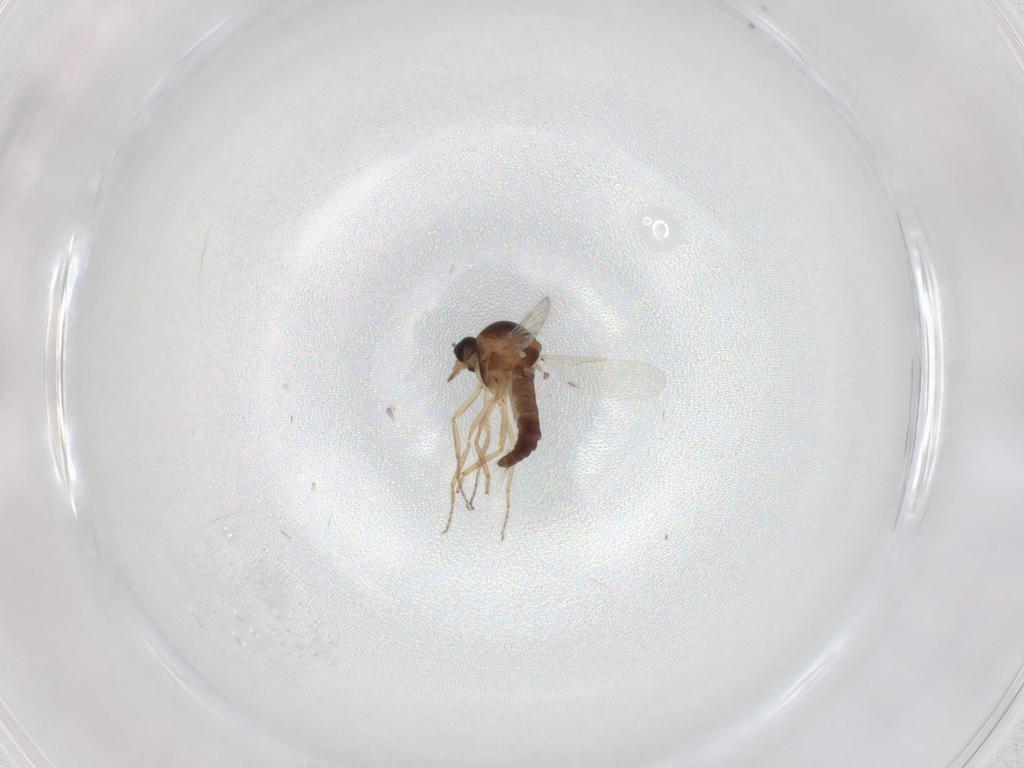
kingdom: Animalia
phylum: Arthropoda
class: Insecta
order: Diptera
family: Ceratopogonidae
